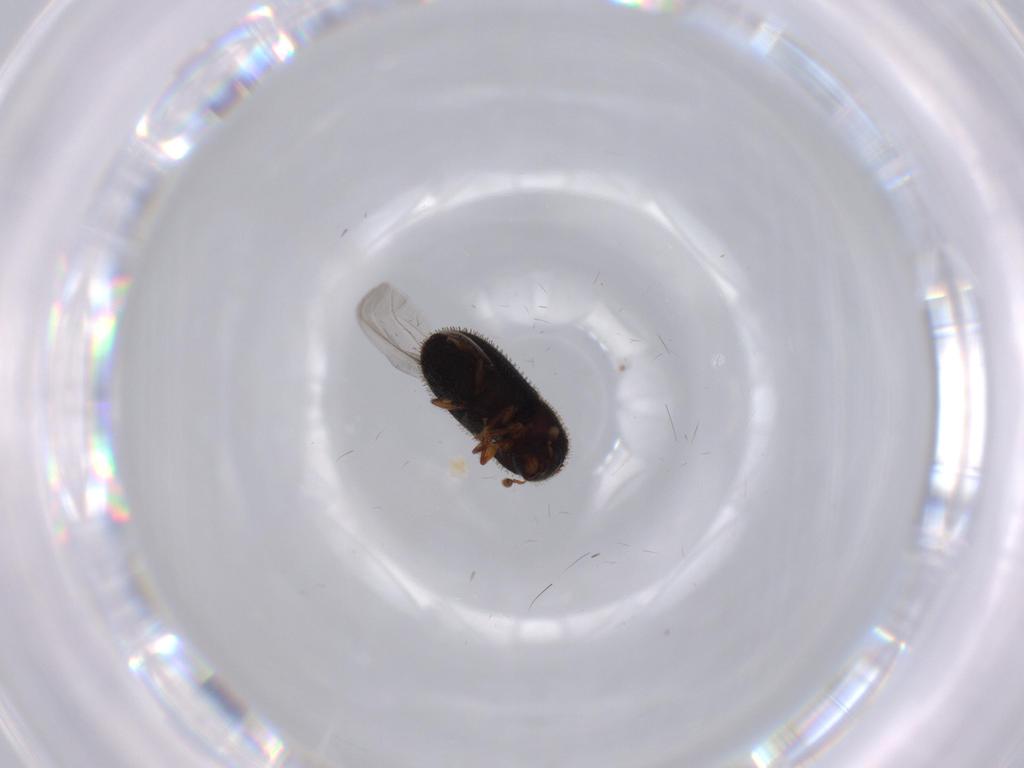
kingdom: Animalia
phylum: Arthropoda
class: Insecta
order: Coleoptera
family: Curculionidae
